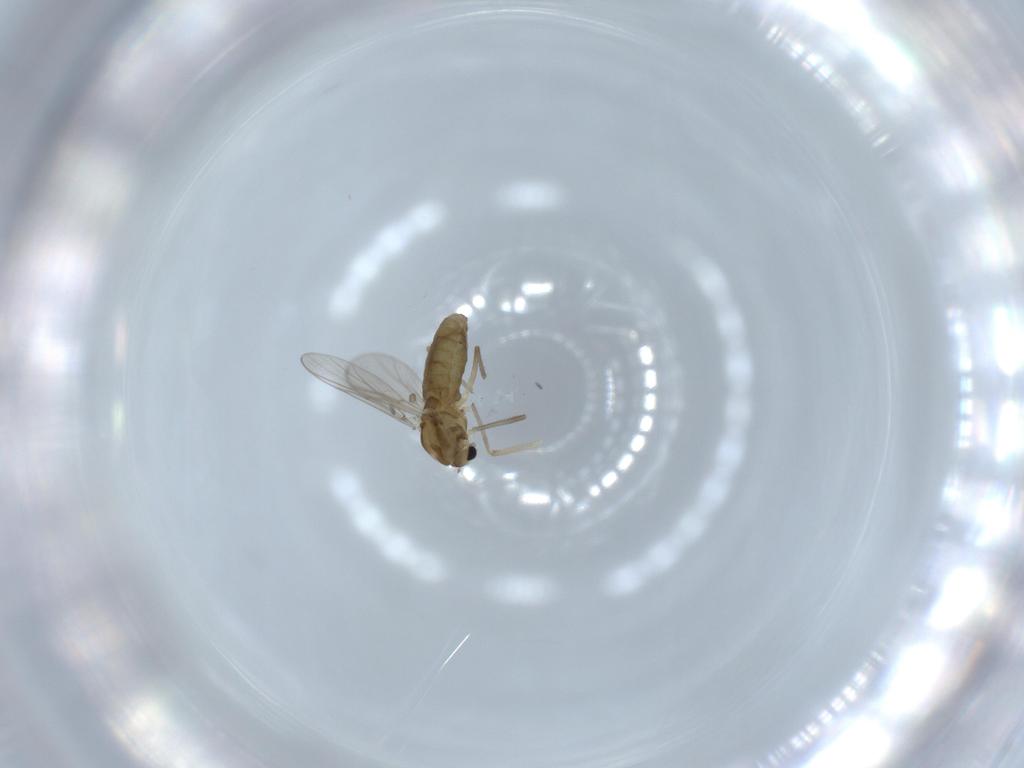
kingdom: Animalia
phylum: Arthropoda
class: Insecta
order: Diptera
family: Chironomidae
